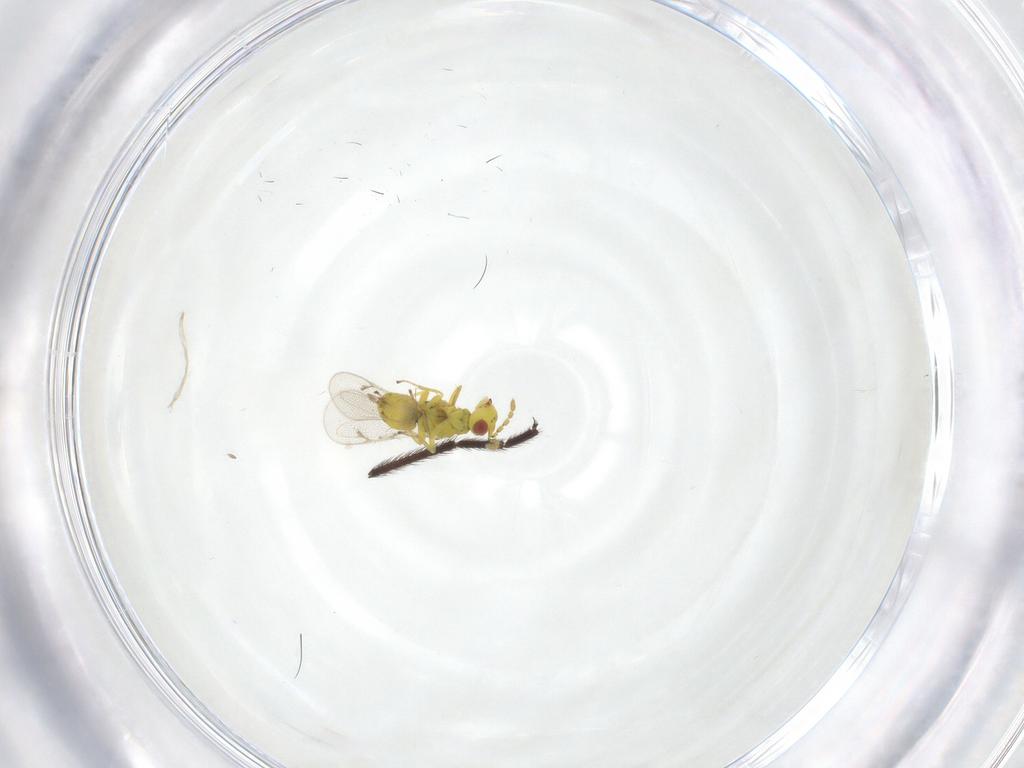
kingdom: Animalia
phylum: Arthropoda
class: Insecta
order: Hymenoptera
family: Eulophidae
